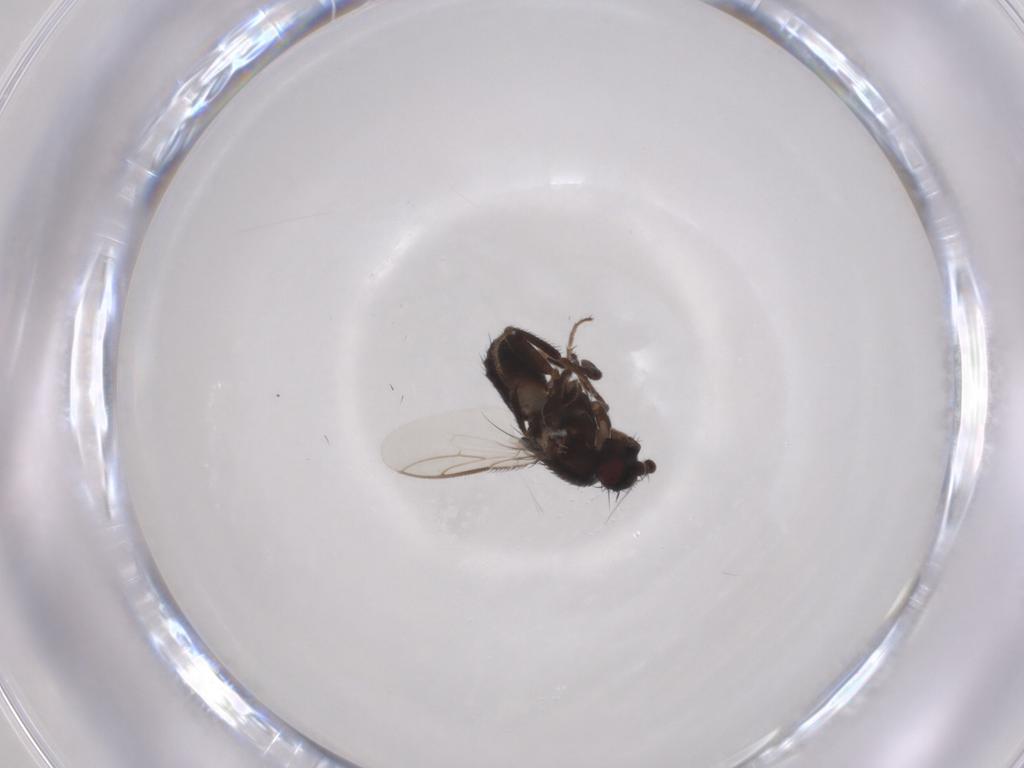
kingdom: Animalia
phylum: Arthropoda
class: Insecta
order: Diptera
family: Sphaeroceridae
